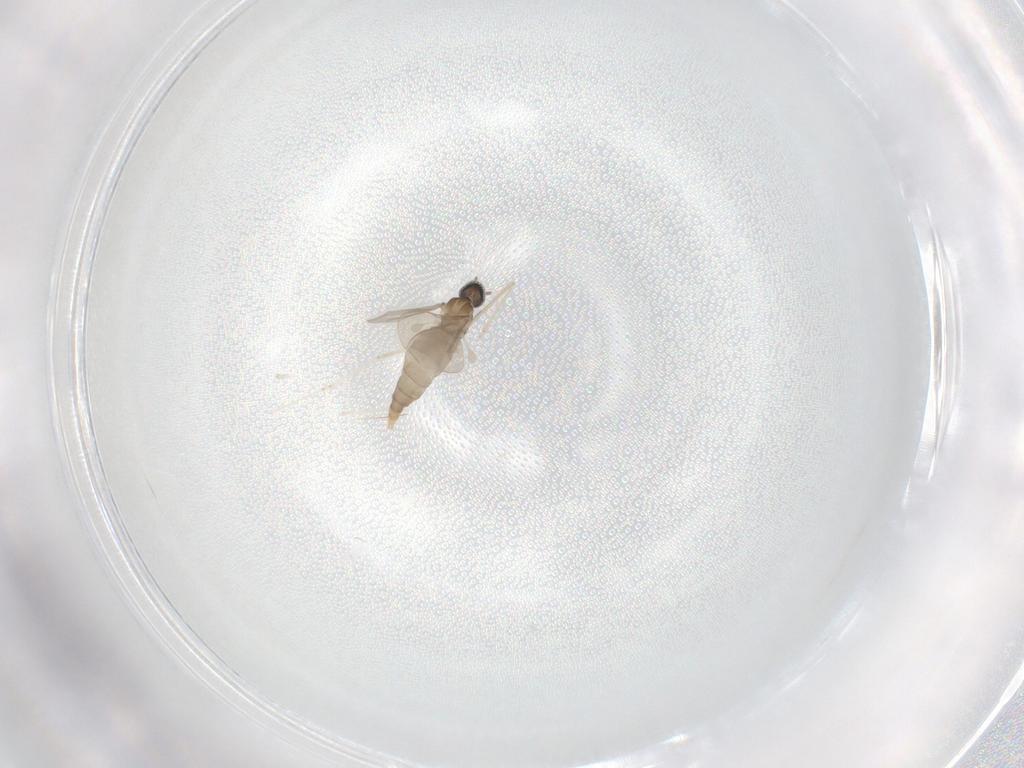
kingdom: Animalia
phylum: Arthropoda
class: Insecta
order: Diptera
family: Cecidomyiidae
